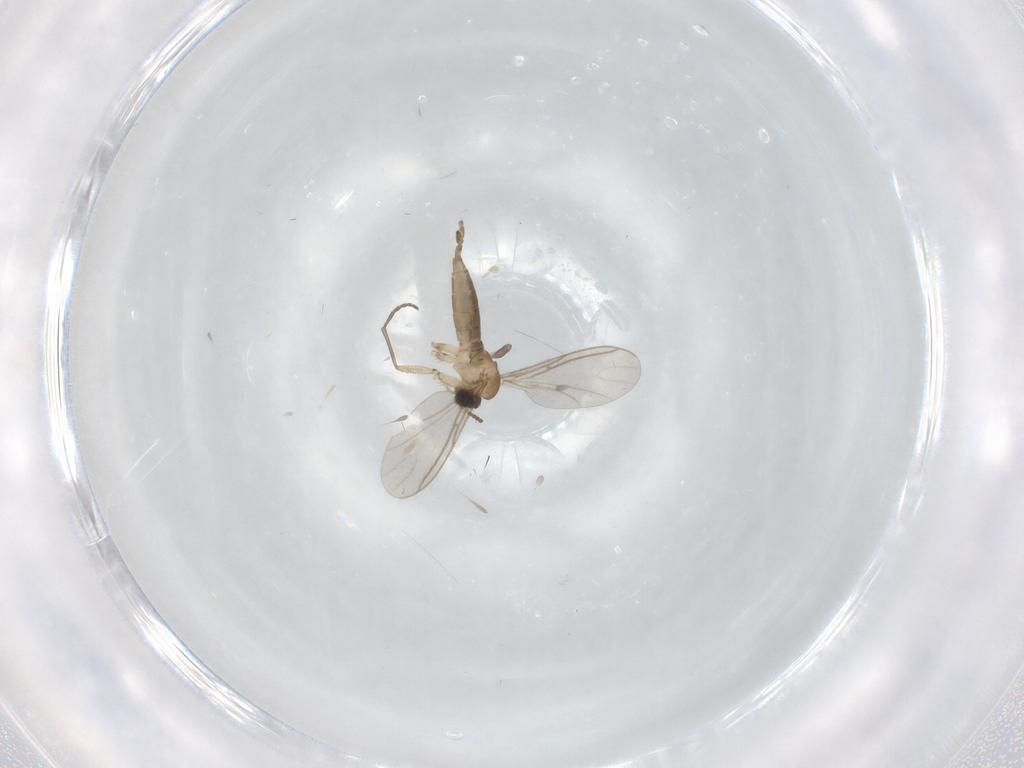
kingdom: Animalia
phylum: Arthropoda
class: Insecta
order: Diptera
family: Sciaridae
